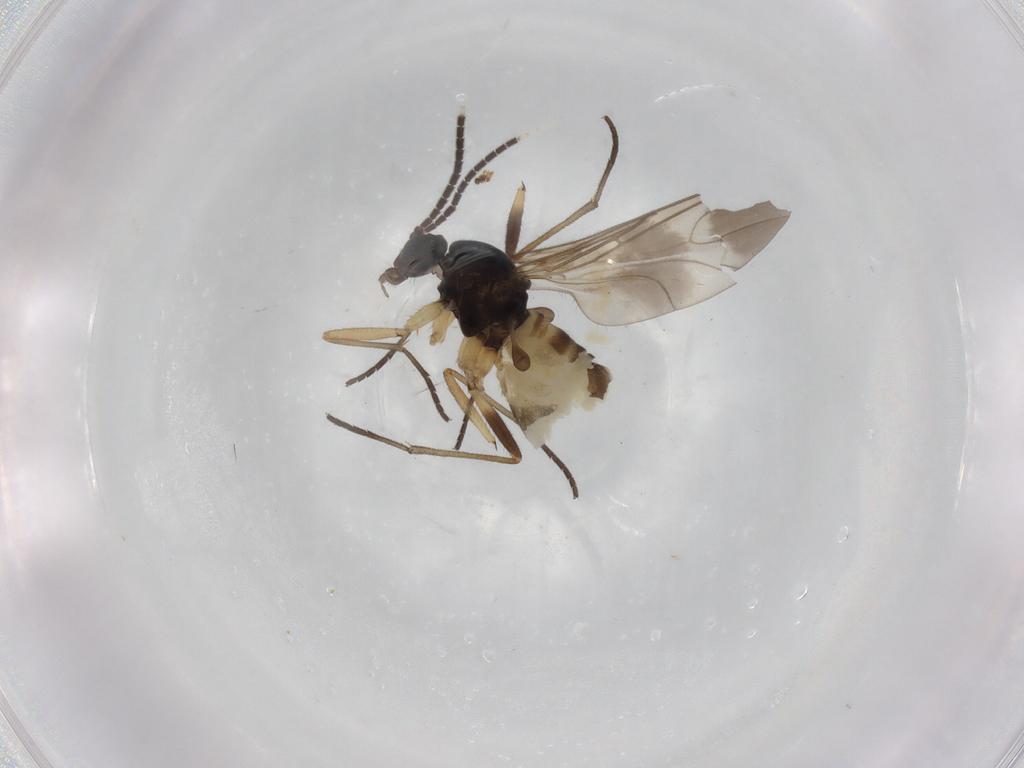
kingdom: Animalia
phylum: Arthropoda
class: Insecta
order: Diptera
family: Sciaridae
